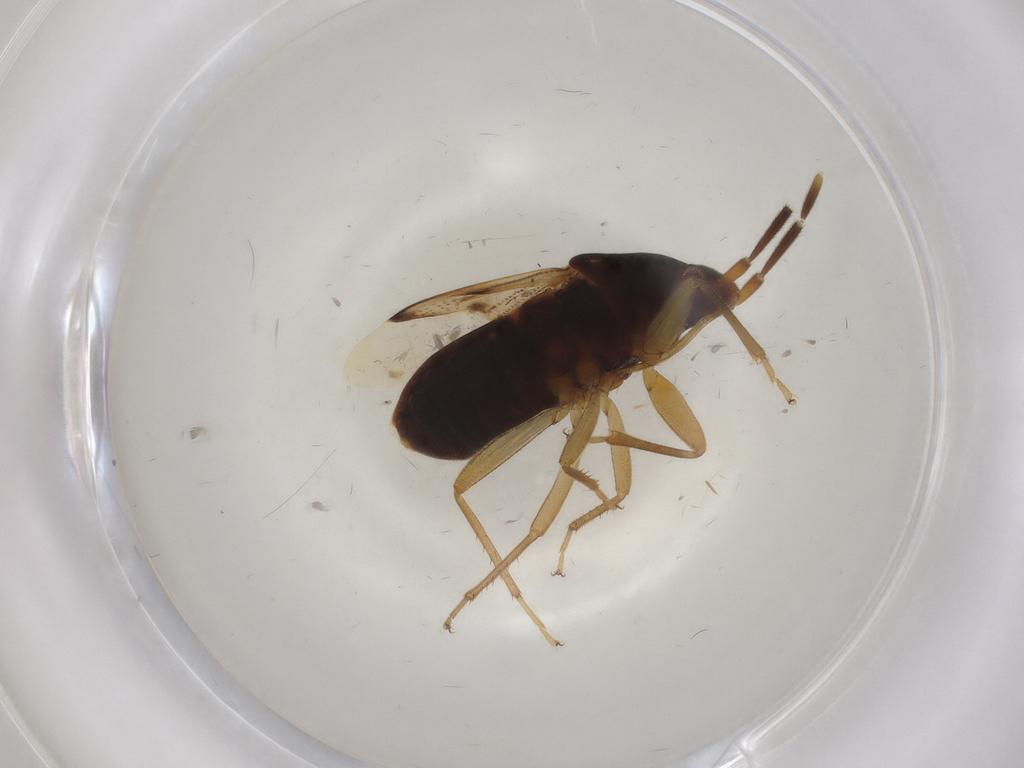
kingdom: Animalia
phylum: Arthropoda
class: Insecta
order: Hemiptera
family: Rhyparochromidae
